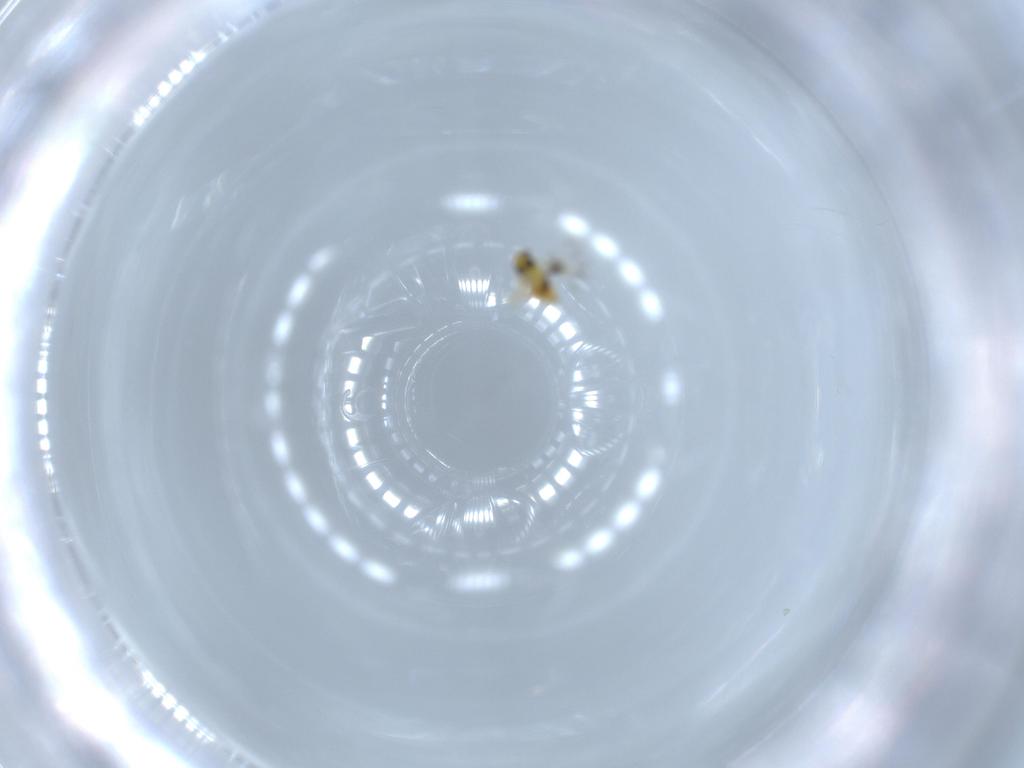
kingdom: Animalia
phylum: Arthropoda
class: Insecta
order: Hymenoptera
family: Signiphoridae
